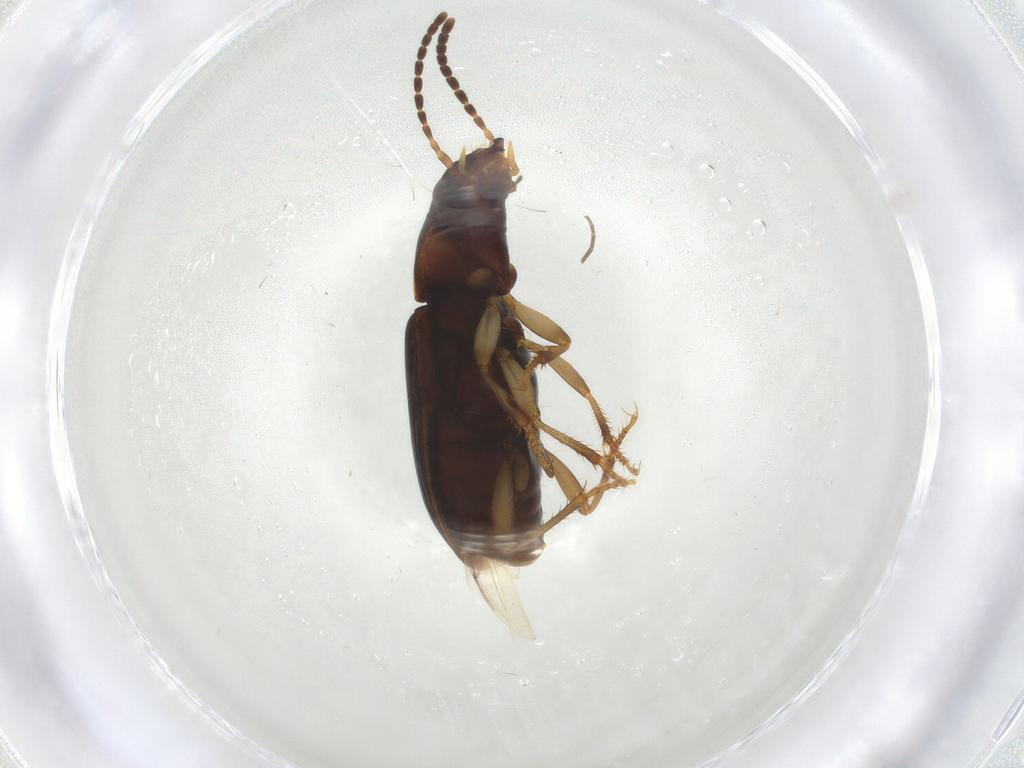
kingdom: Animalia
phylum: Arthropoda
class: Insecta
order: Coleoptera
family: Carabidae
